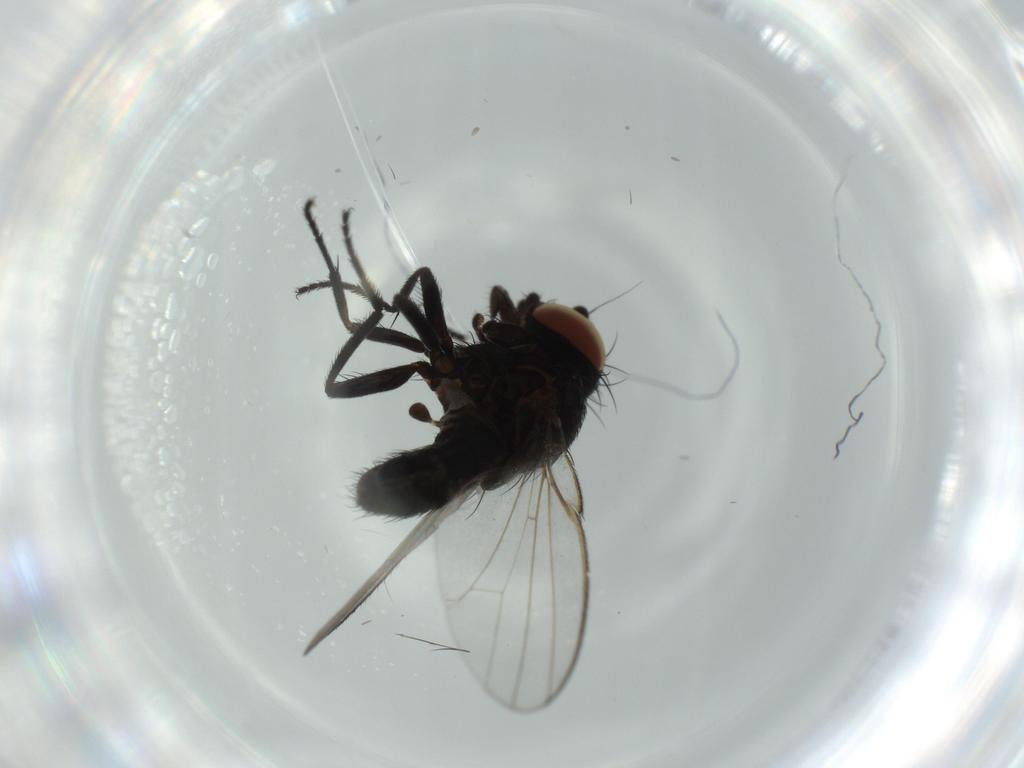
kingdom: Animalia
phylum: Arthropoda
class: Insecta
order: Diptera
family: Milichiidae
